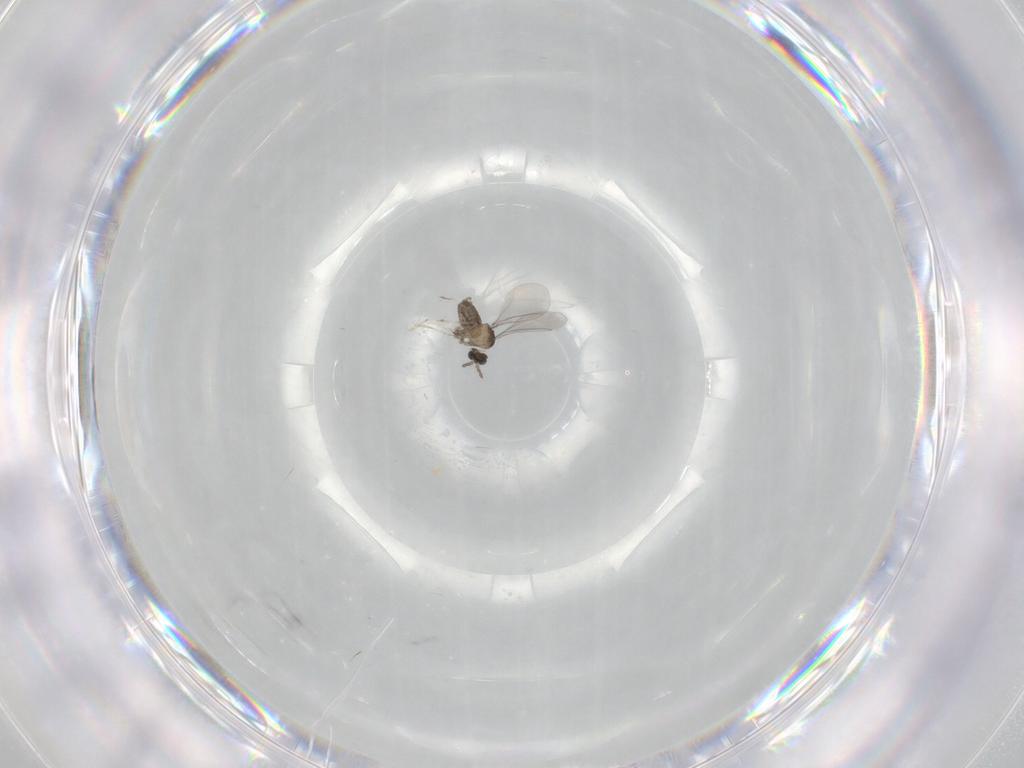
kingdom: Animalia
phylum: Arthropoda
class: Insecta
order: Diptera
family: Cecidomyiidae
